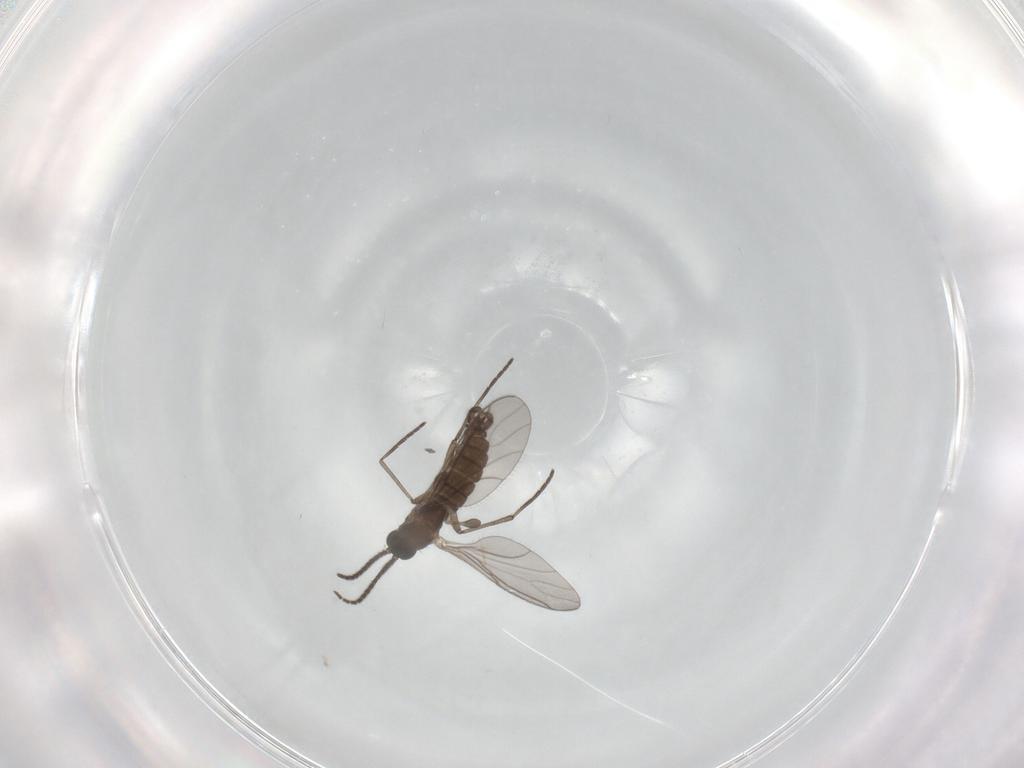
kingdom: Animalia
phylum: Arthropoda
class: Insecta
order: Diptera
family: Sciaridae
